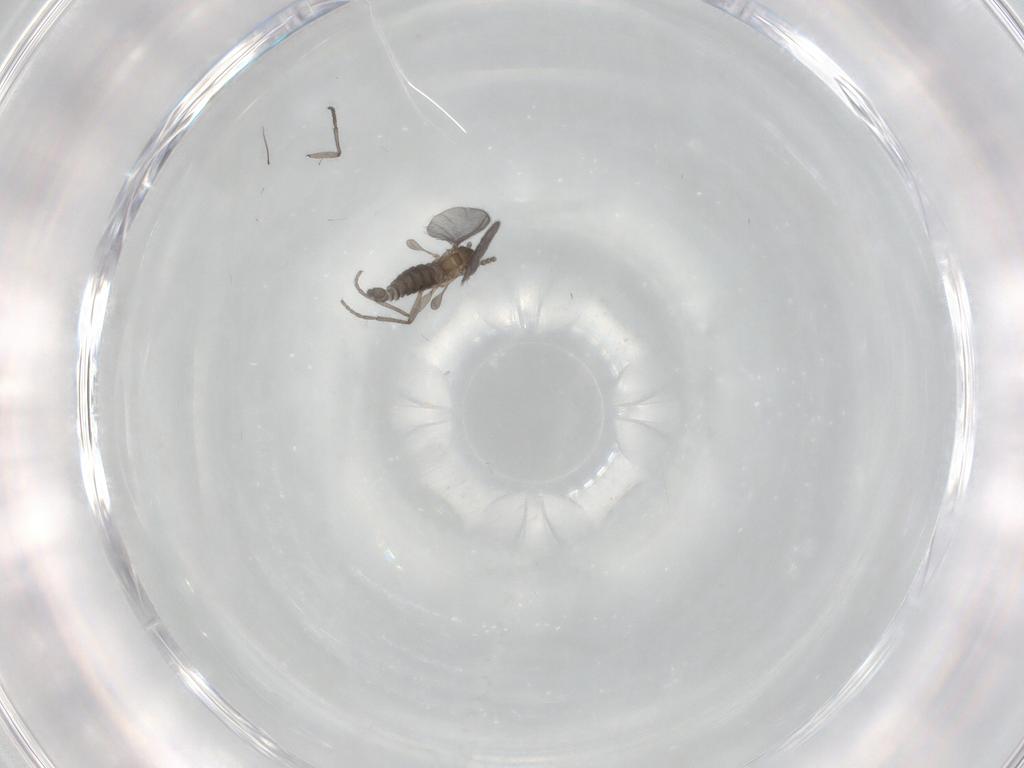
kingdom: Animalia
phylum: Arthropoda
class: Insecta
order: Diptera
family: Sciaridae
